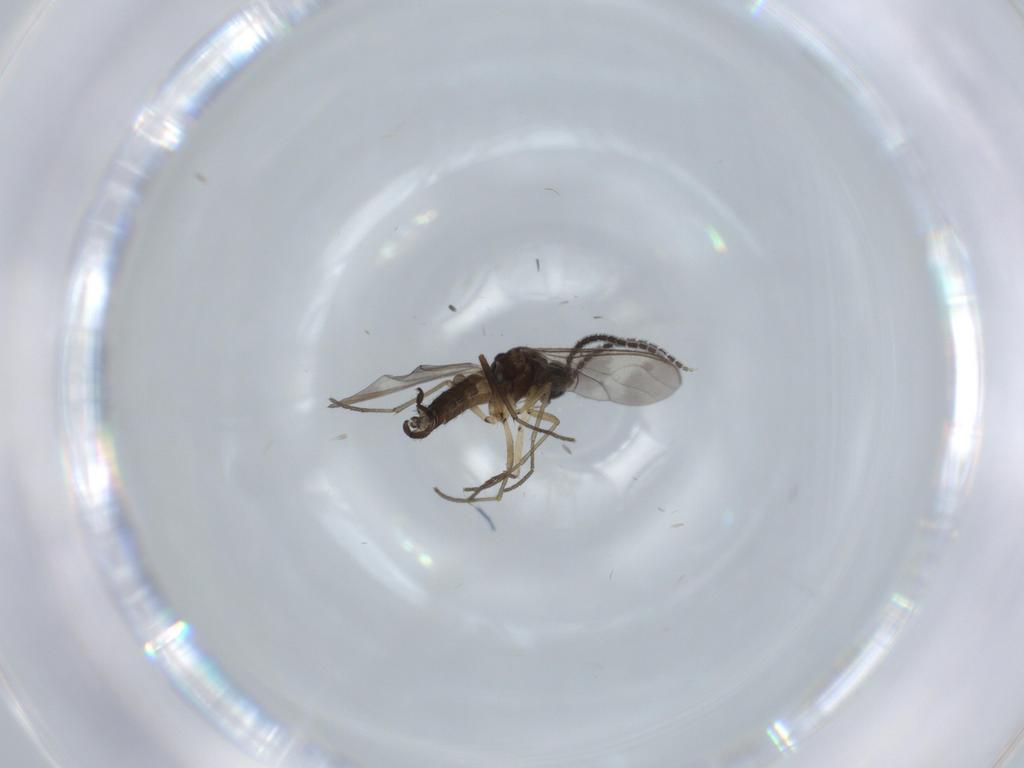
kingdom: Animalia
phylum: Arthropoda
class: Insecta
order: Diptera
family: Sciaridae
